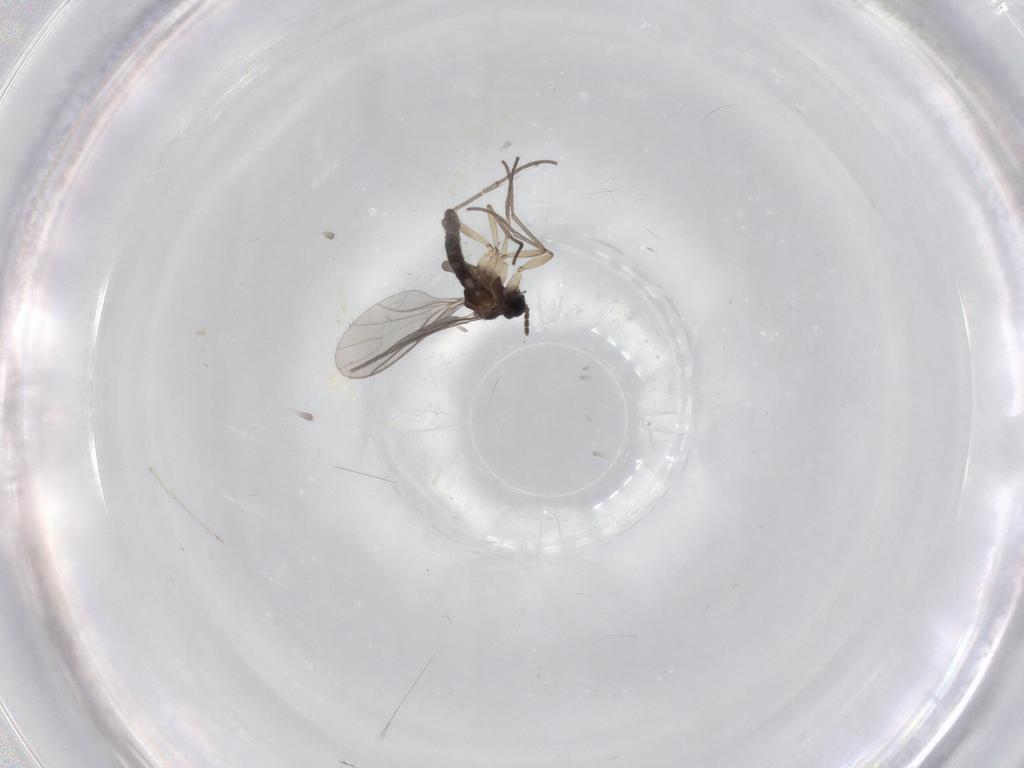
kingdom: Animalia
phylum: Arthropoda
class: Insecta
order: Diptera
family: Sciaridae
